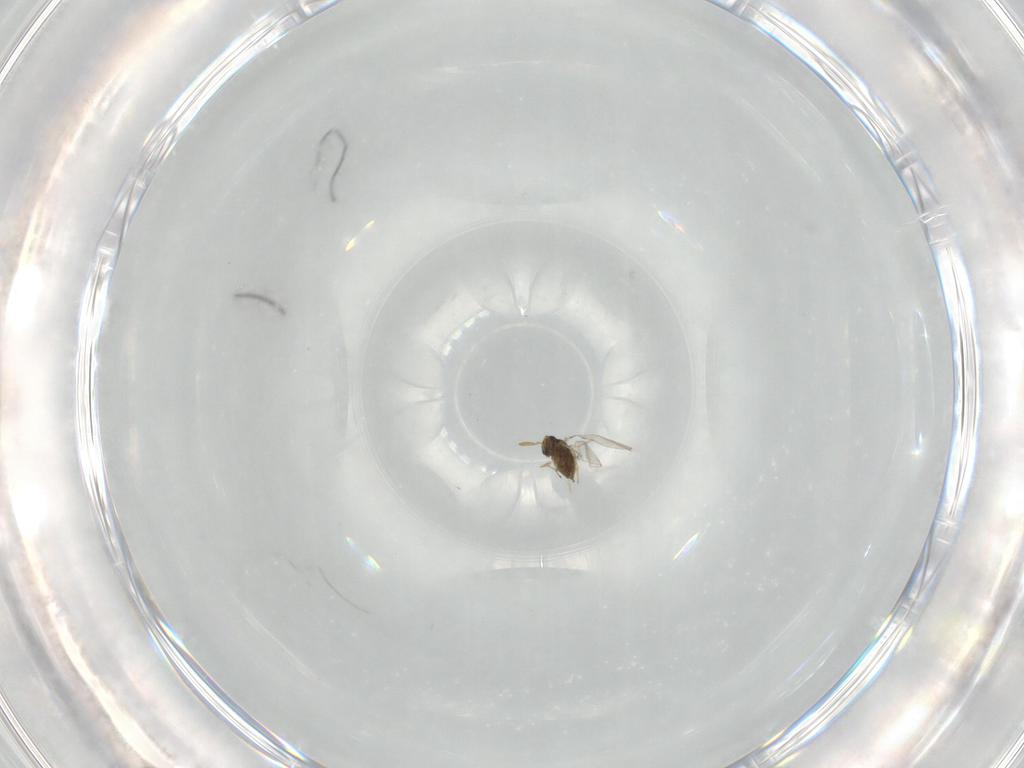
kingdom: Animalia
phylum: Arthropoda
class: Insecta
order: Hymenoptera
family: Encyrtidae
